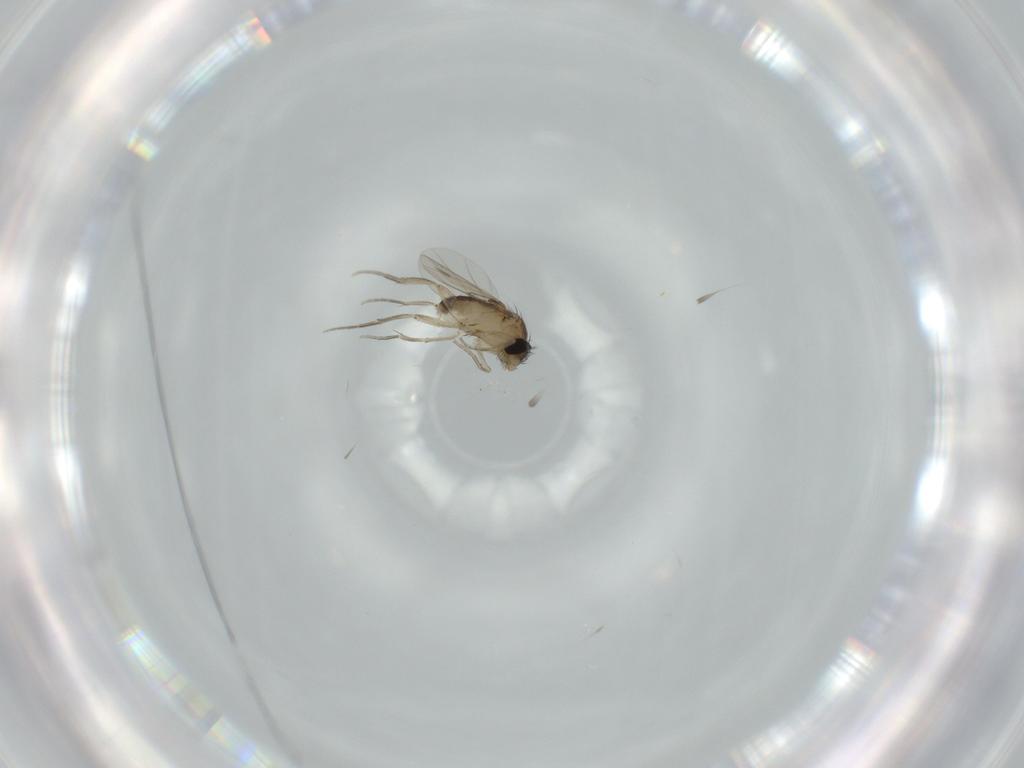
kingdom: Animalia
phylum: Arthropoda
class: Insecta
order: Diptera
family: Phoridae
